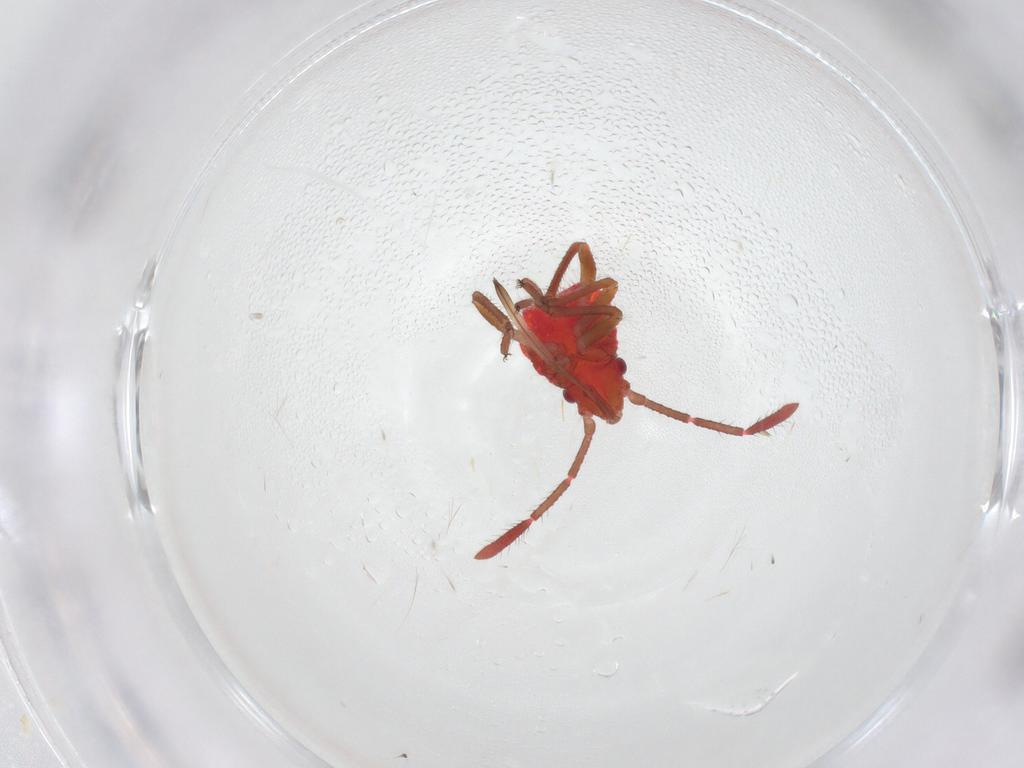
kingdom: Animalia
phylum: Arthropoda
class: Insecta
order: Hemiptera
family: Rhopalidae
